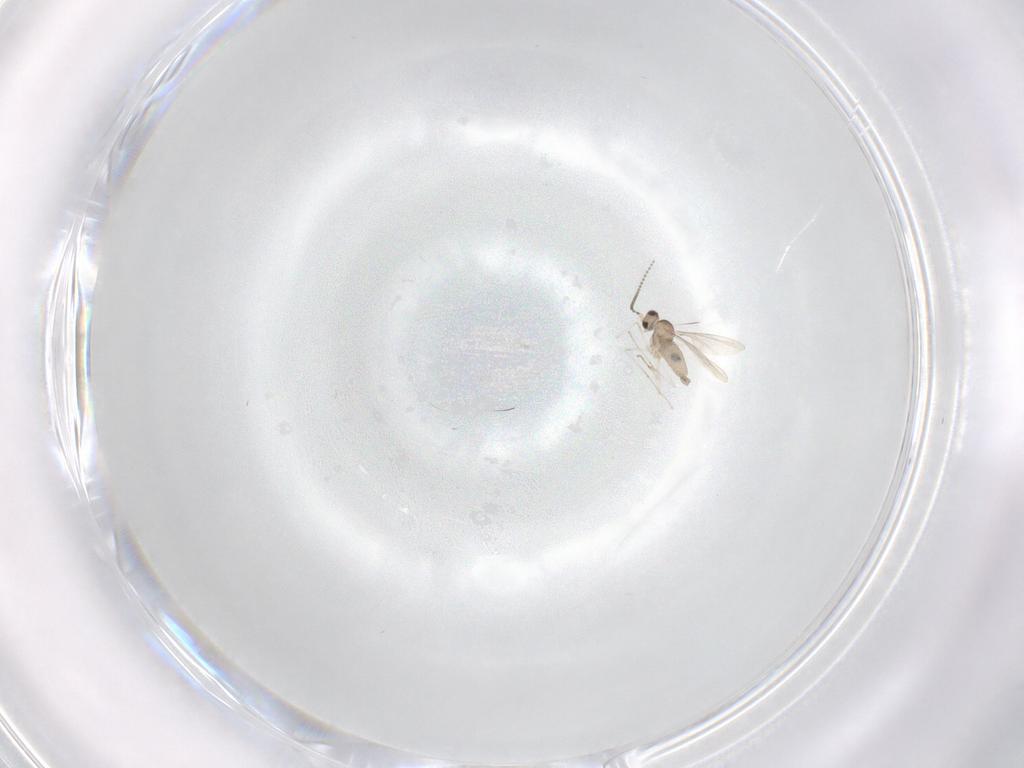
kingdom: Animalia
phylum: Arthropoda
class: Insecta
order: Diptera
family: Cecidomyiidae
